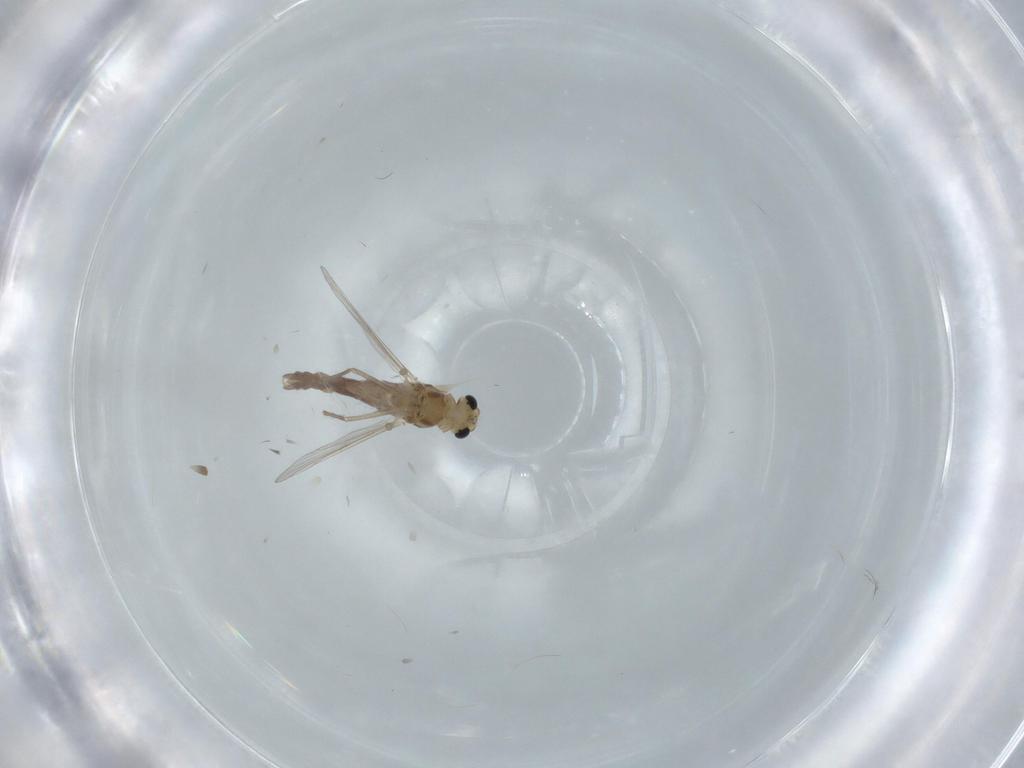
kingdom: Animalia
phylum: Arthropoda
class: Insecta
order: Diptera
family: Chironomidae
